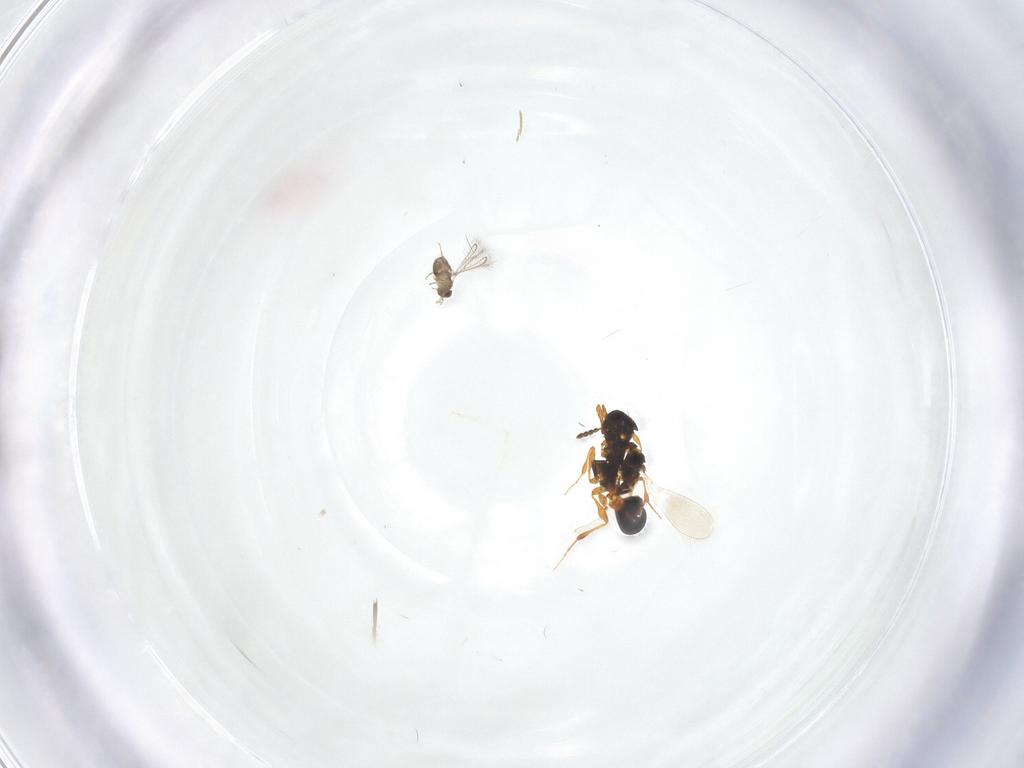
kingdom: Animalia
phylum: Arthropoda
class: Insecta
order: Hymenoptera
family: Platygastridae
